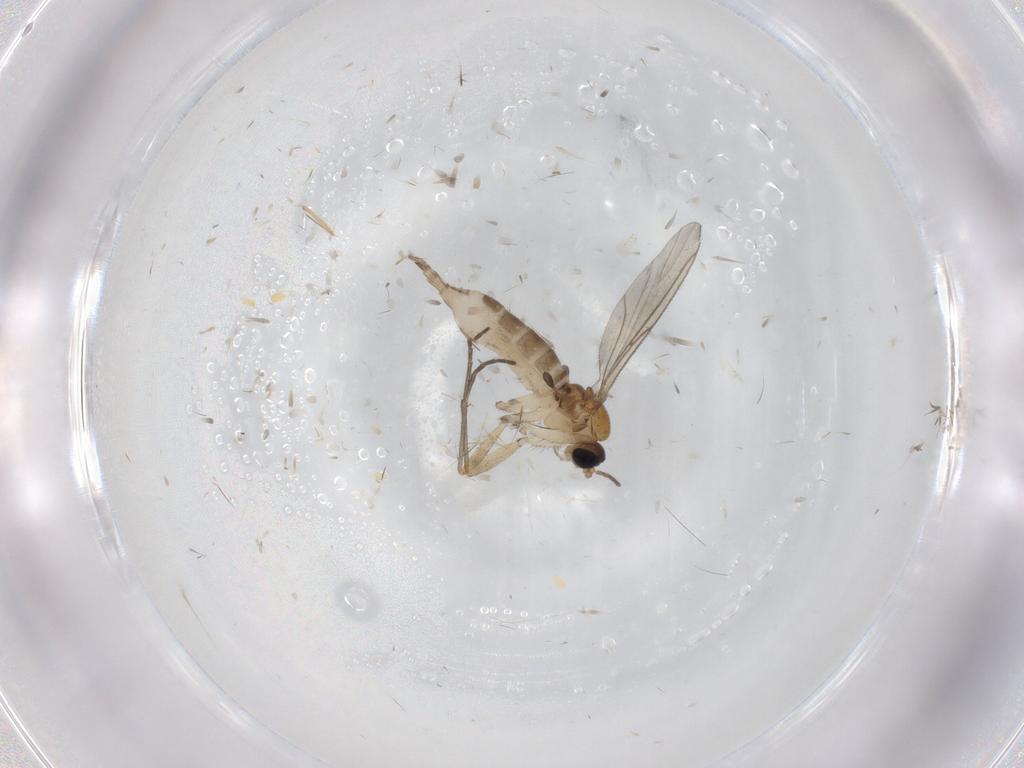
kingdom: Animalia
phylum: Arthropoda
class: Insecta
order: Diptera
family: Sciaridae
